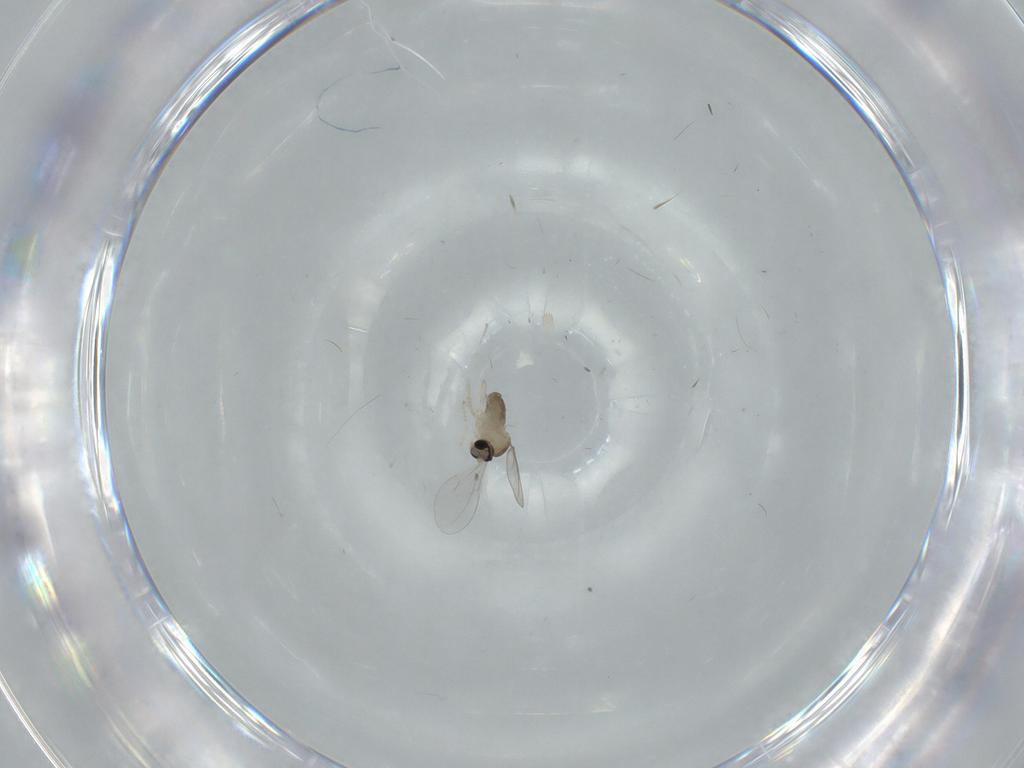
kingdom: Animalia
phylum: Arthropoda
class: Insecta
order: Diptera
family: Cecidomyiidae
